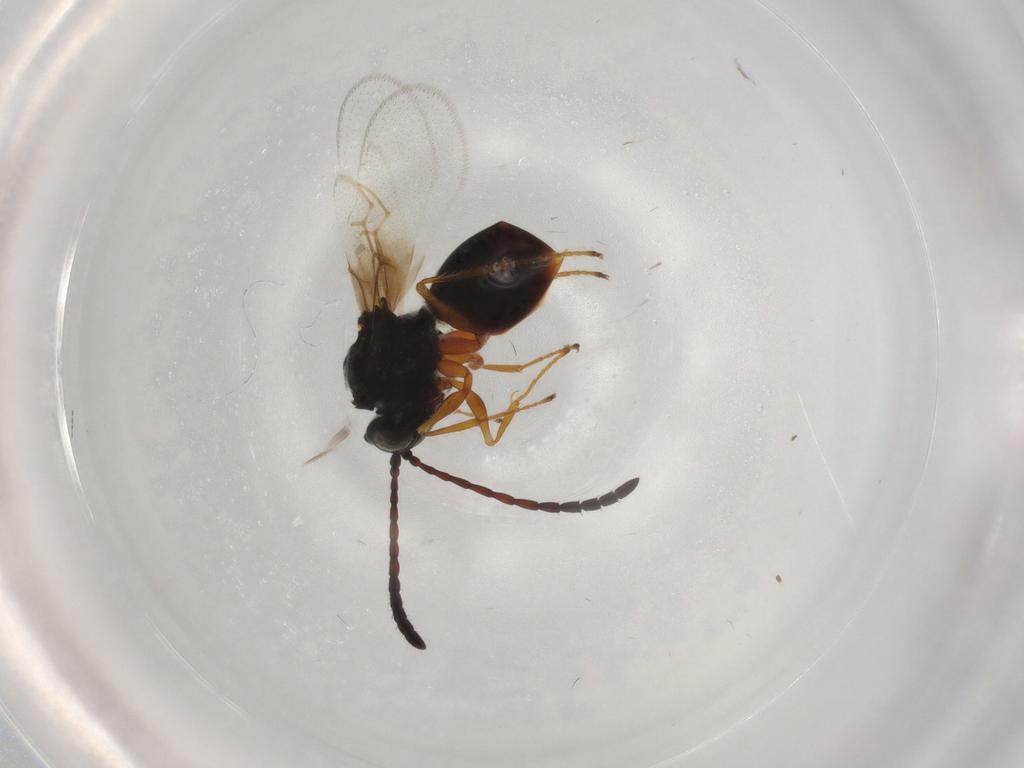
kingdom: Animalia
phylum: Arthropoda
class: Insecta
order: Hymenoptera
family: Figitidae
